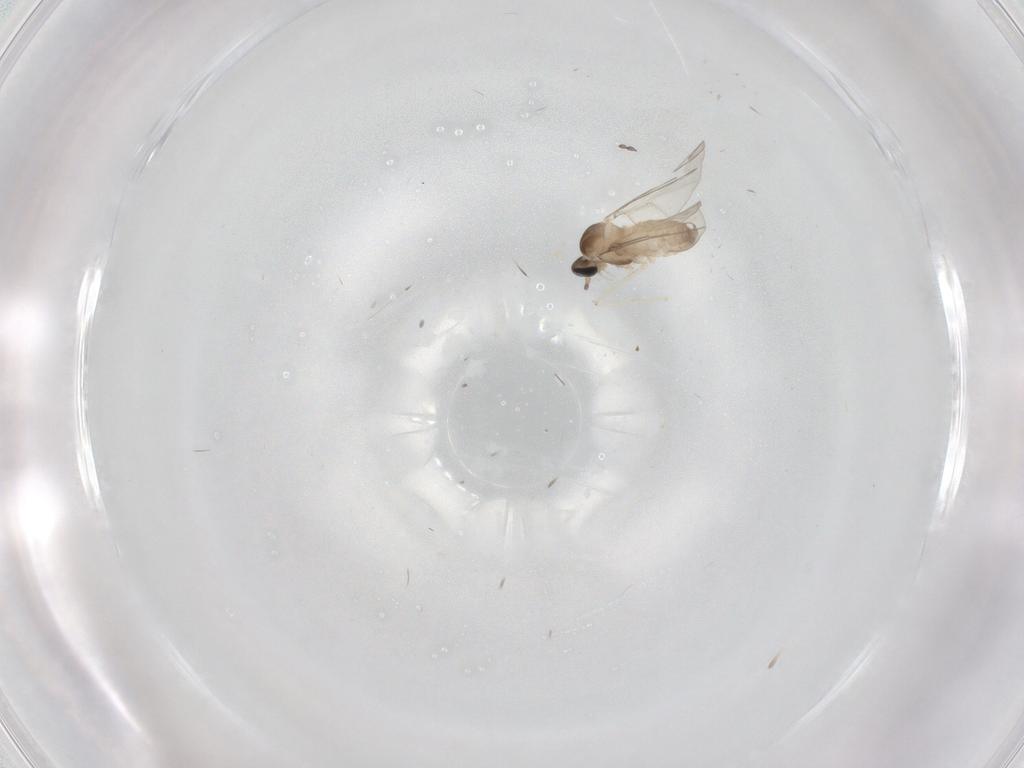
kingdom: Animalia
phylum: Arthropoda
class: Insecta
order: Diptera
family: Cecidomyiidae
